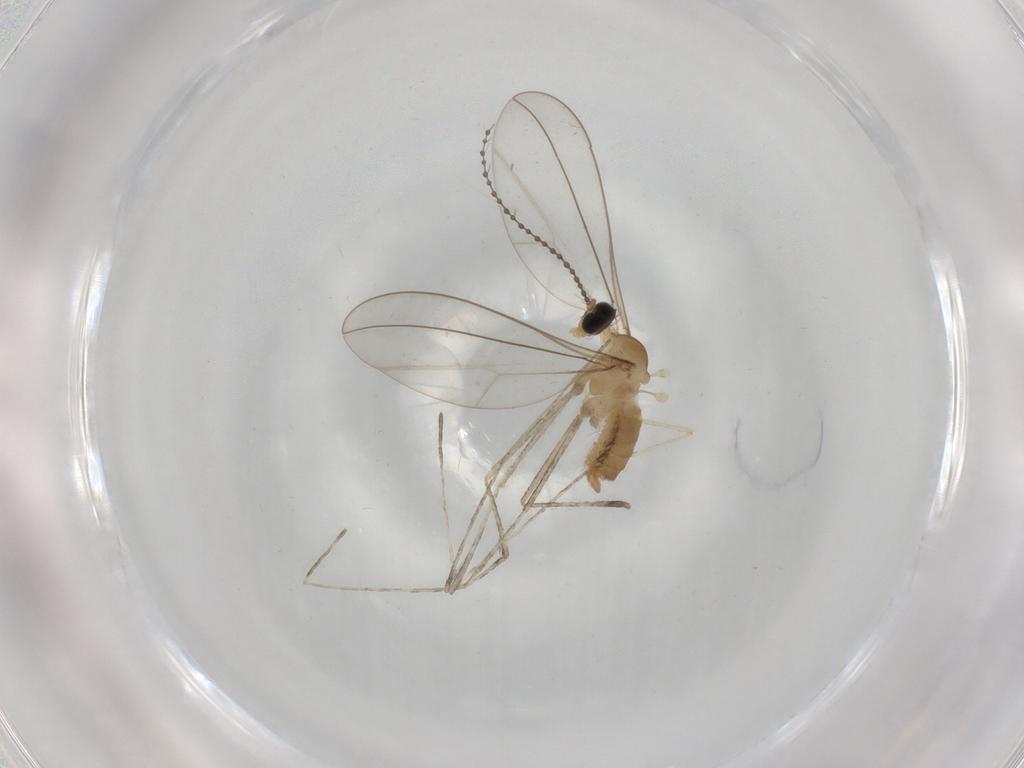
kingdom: Animalia
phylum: Arthropoda
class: Insecta
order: Diptera
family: Cecidomyiidae
